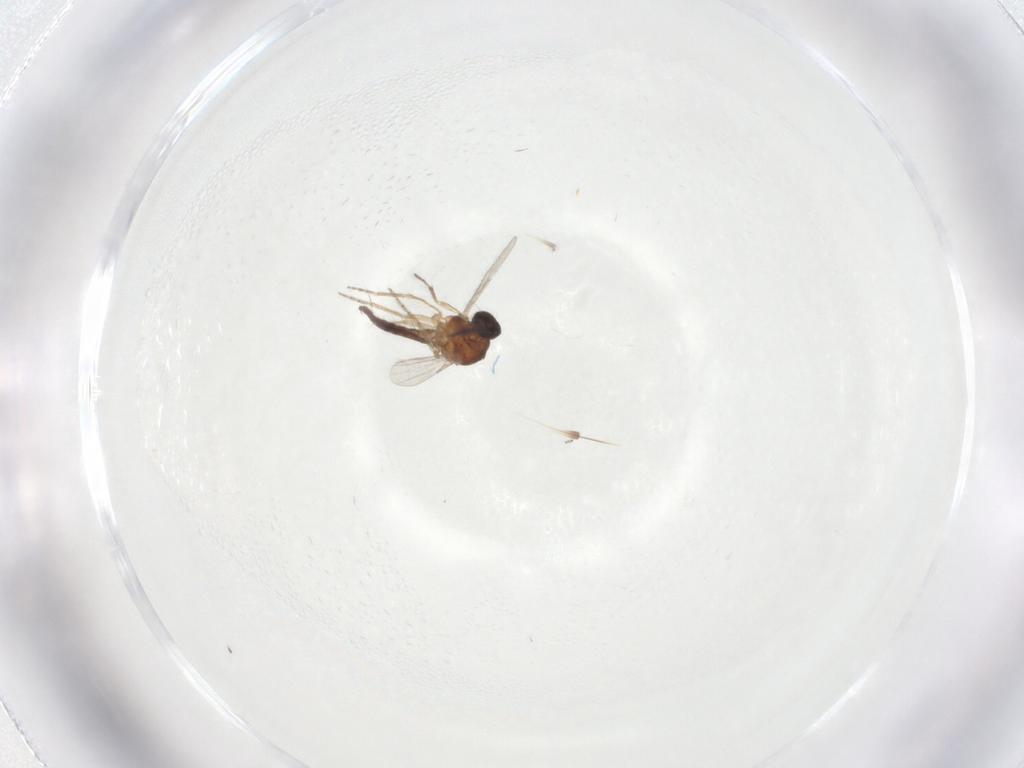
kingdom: Animalia
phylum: Arthropoda
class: Insecta
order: Diptera
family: Ceratopogonidae
